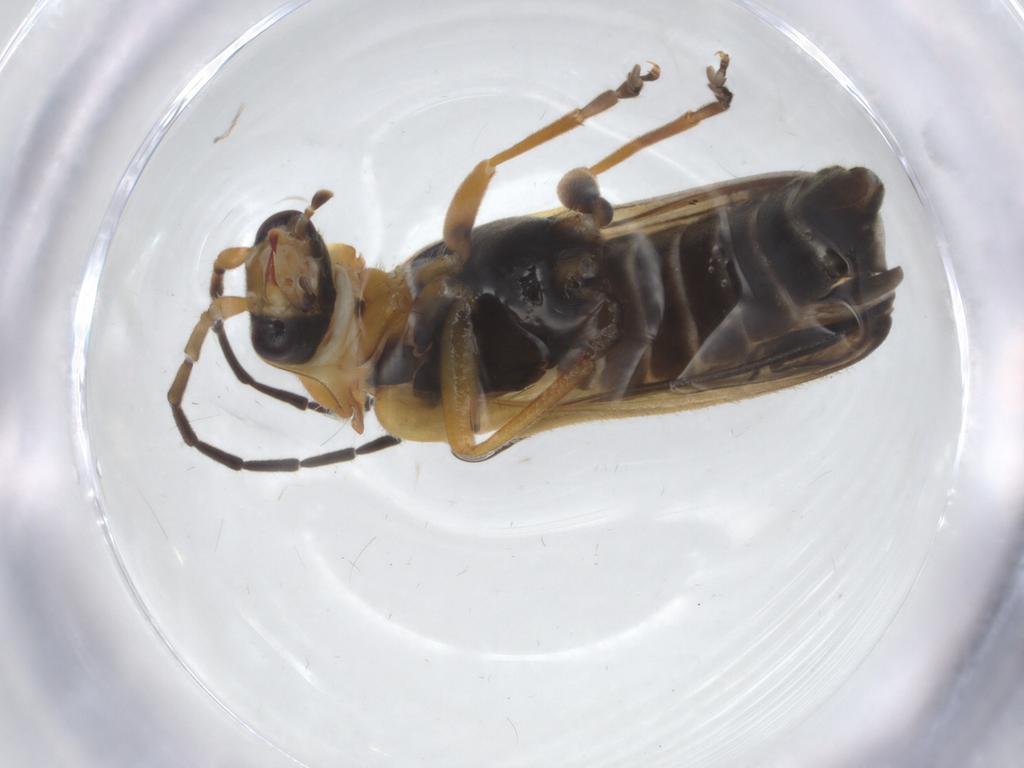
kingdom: Animalia
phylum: Arthropoda
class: Insecta
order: Coleoptera
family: Cantharidae
